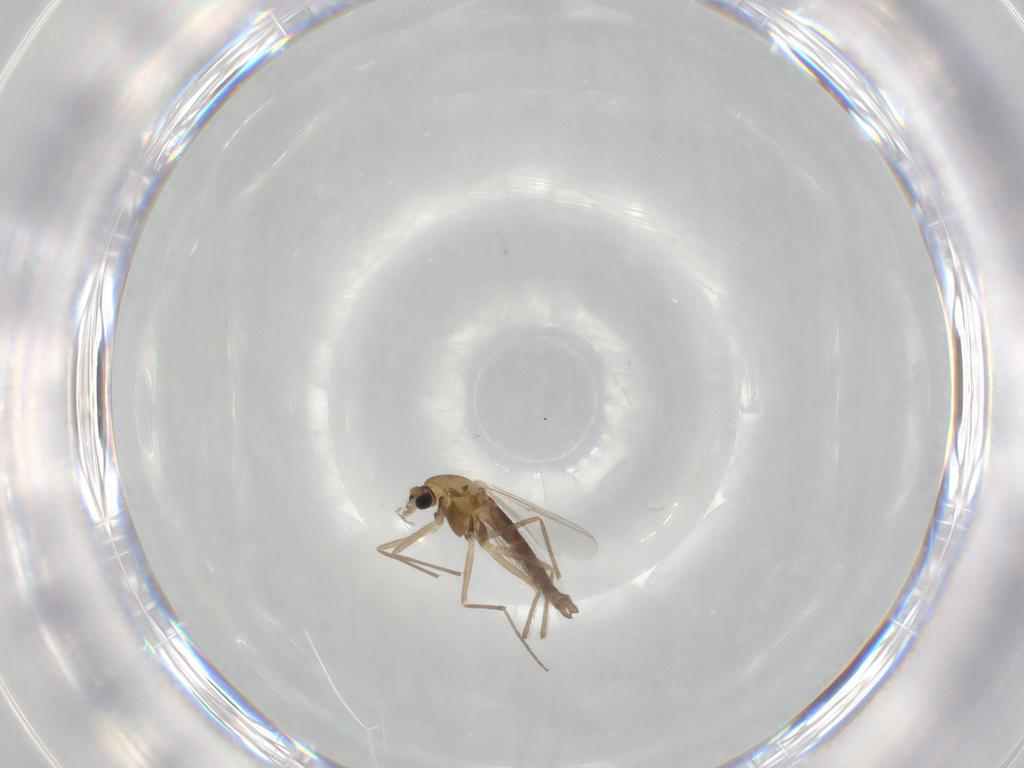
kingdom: Animalia
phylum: Arthropoda
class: Insecta
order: Diptera
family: Chironomidae
